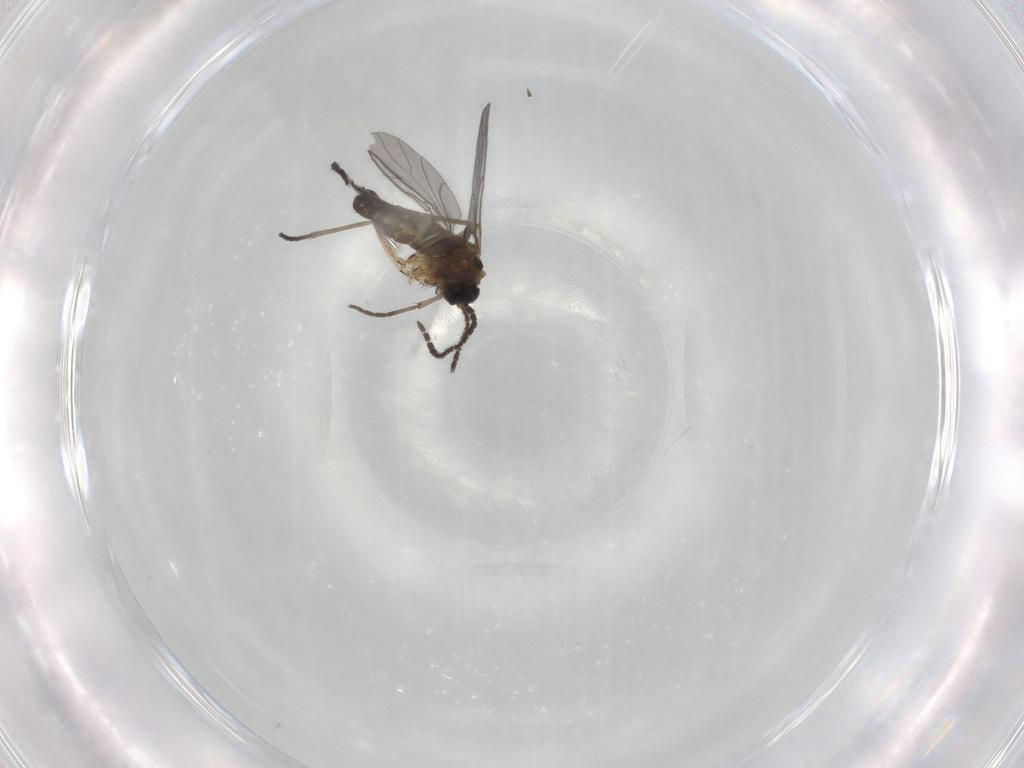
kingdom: Animalia
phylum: Arthropoda
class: Insecta
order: Diptera
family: Sciaridae
